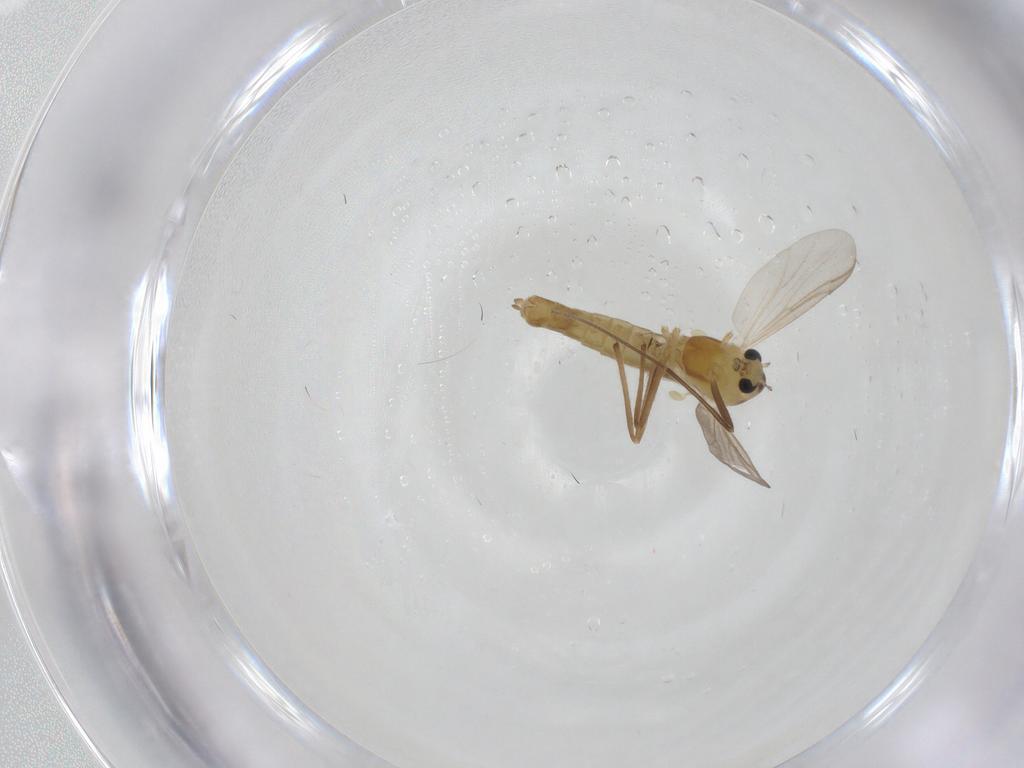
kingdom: Animalia
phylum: Arthropoda
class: Insecta
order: Diptera
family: Chironomidae
